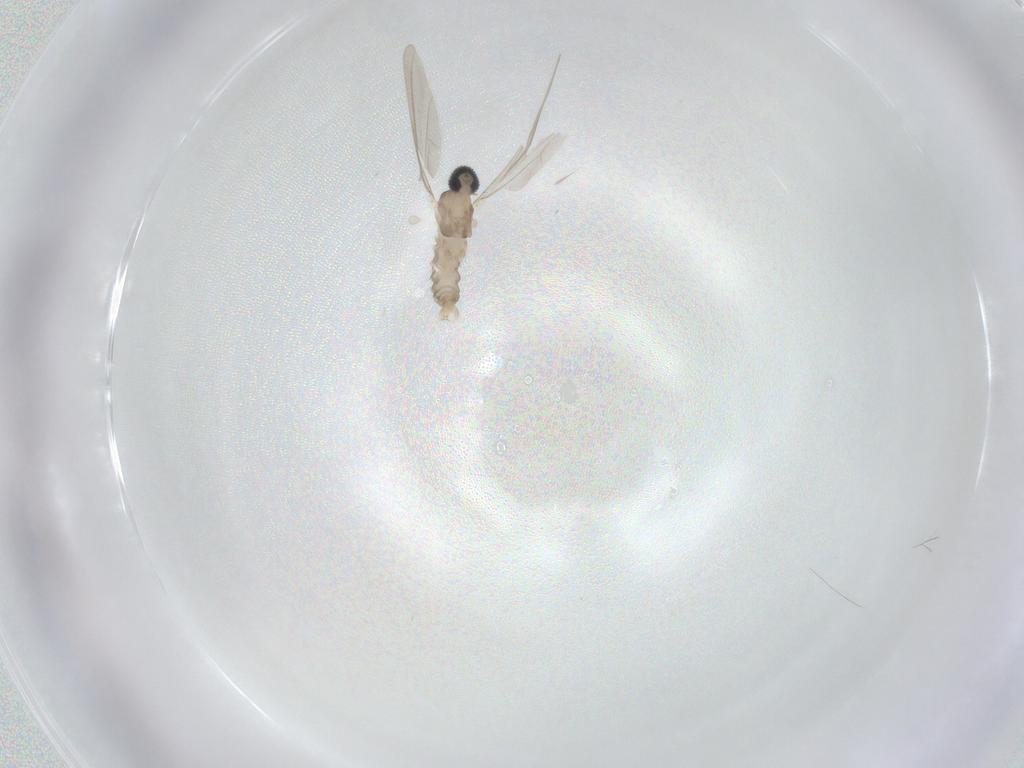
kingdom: Animalia
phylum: Arthropoda
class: Insecta
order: Diptera
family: Cecidomyiidae
